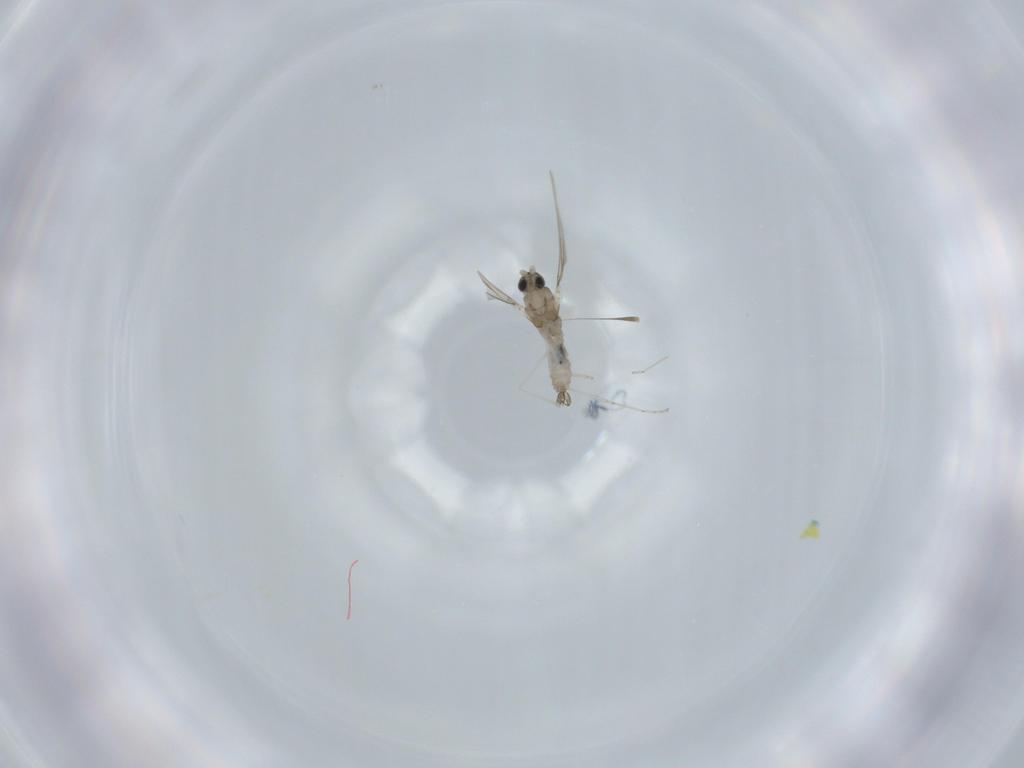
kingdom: Animalia
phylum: Arthropoda
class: Insecta
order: Diptera
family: Cecidomyiidae
